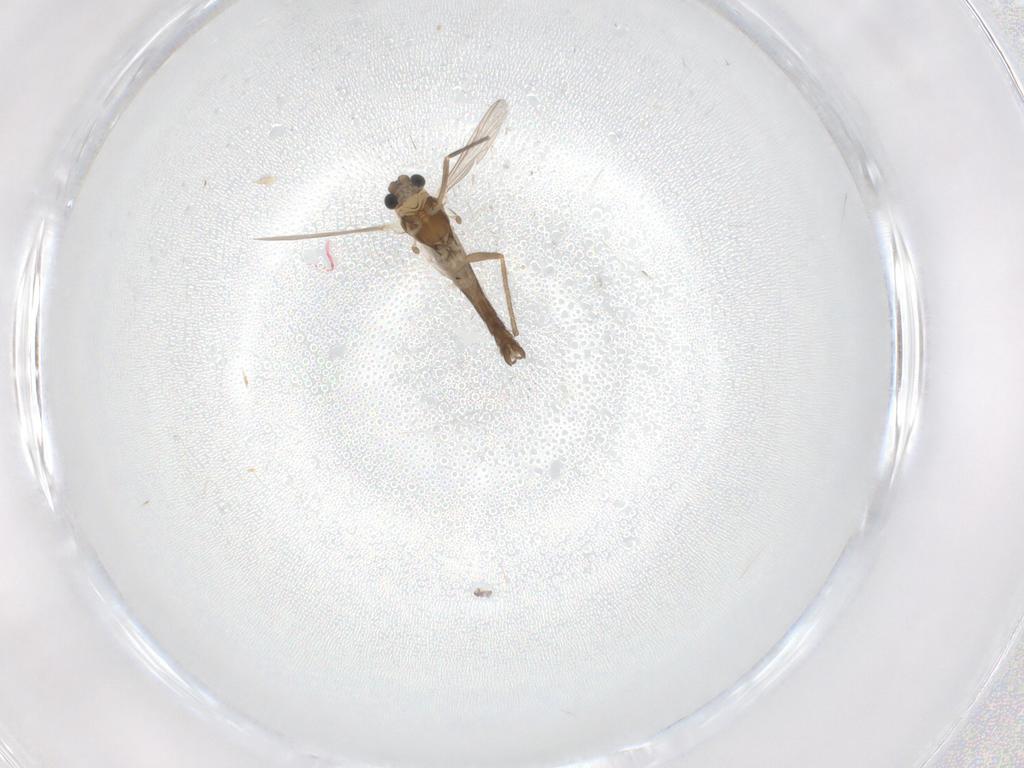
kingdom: Animalia
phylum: Arthropoda
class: Insecta
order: Diptera
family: Chironomidae
